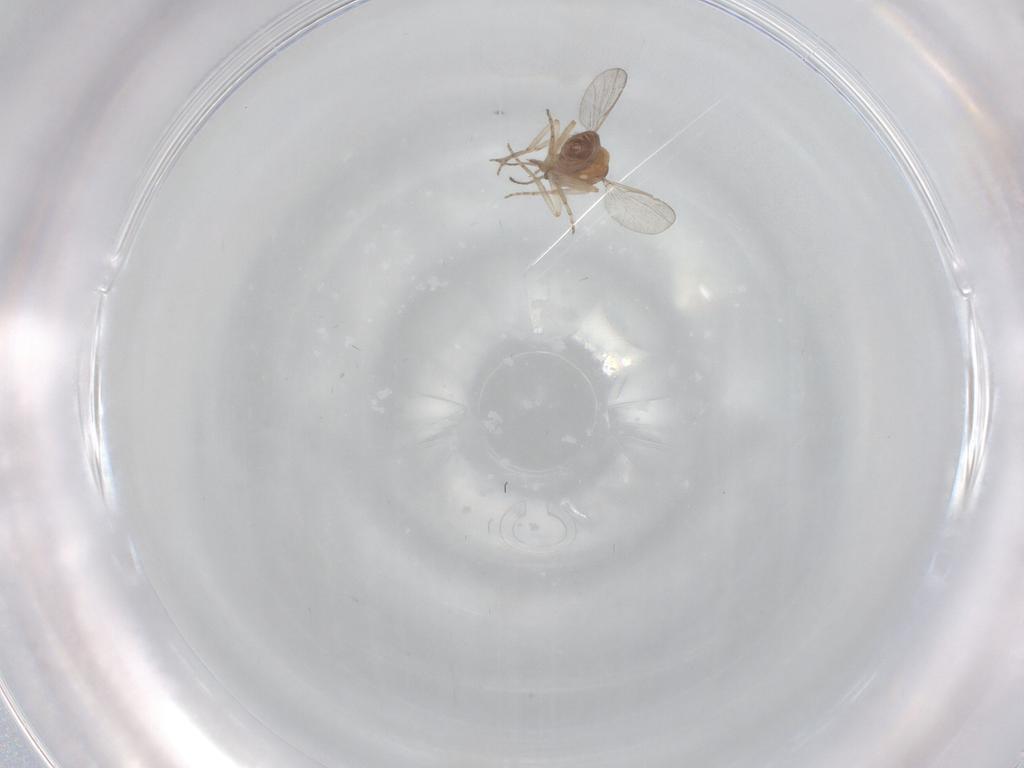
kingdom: Animalia
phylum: Arthropoda
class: Insecta
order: Diptera
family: Ceratopogonidae
